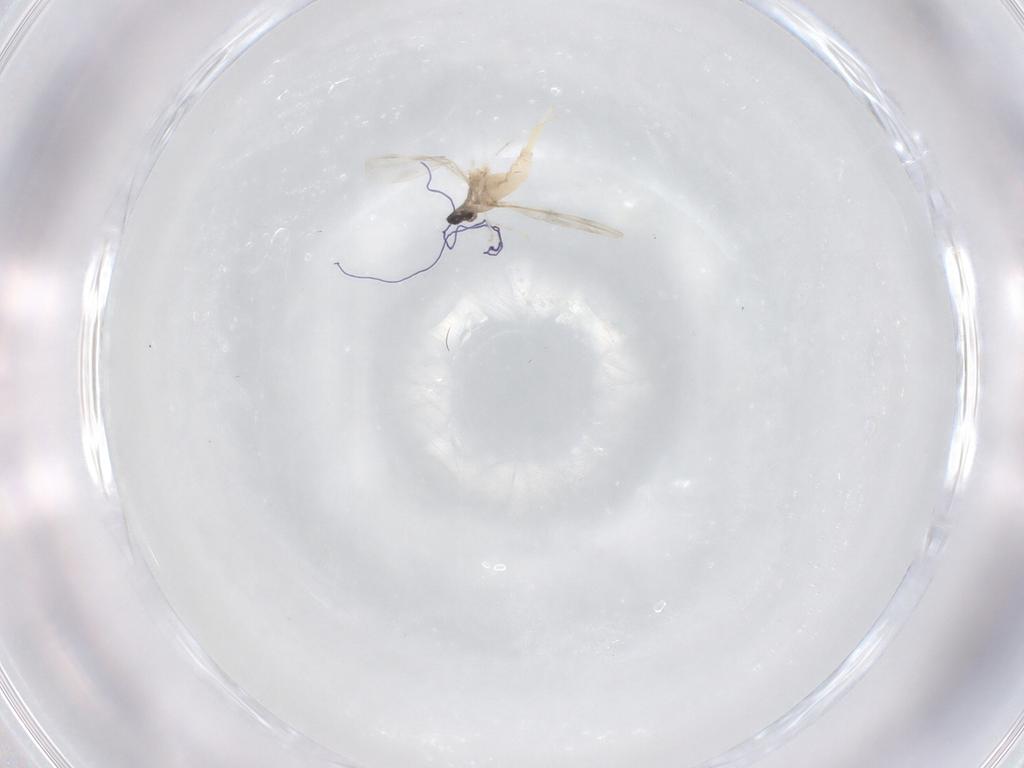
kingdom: Animalia
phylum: Arthropoda
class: Insecta
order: Diptera
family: Cecidomyiidae
